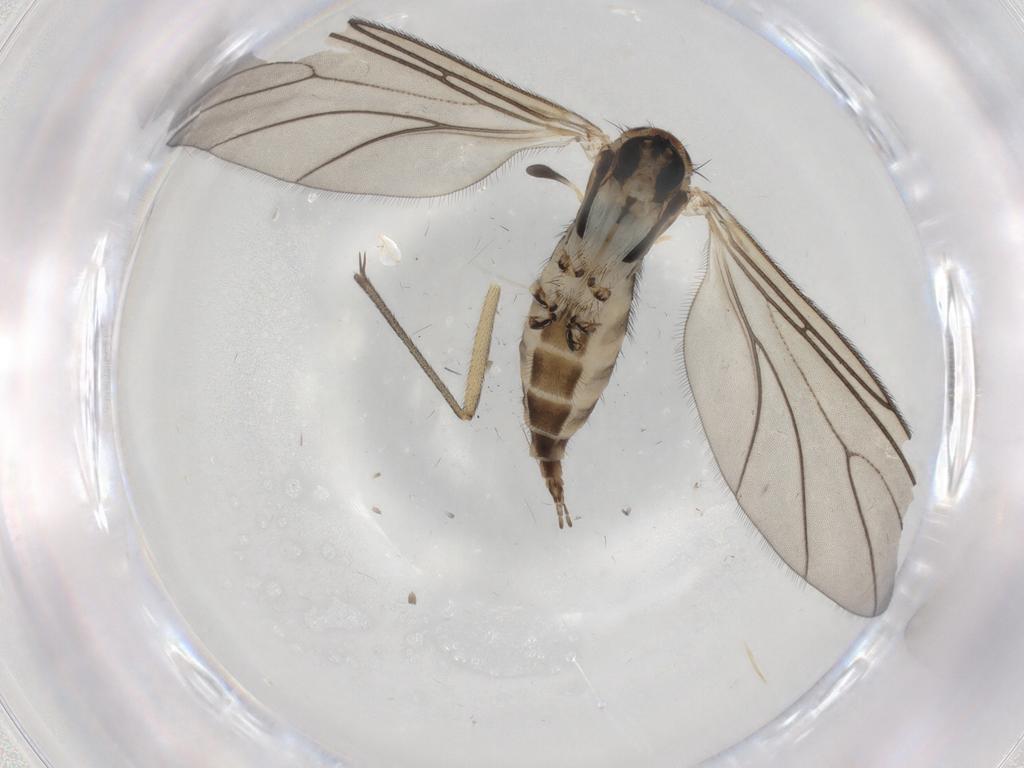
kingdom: Animalia
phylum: Arthropoda
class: Insecta
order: Diptera
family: Sciaridae
